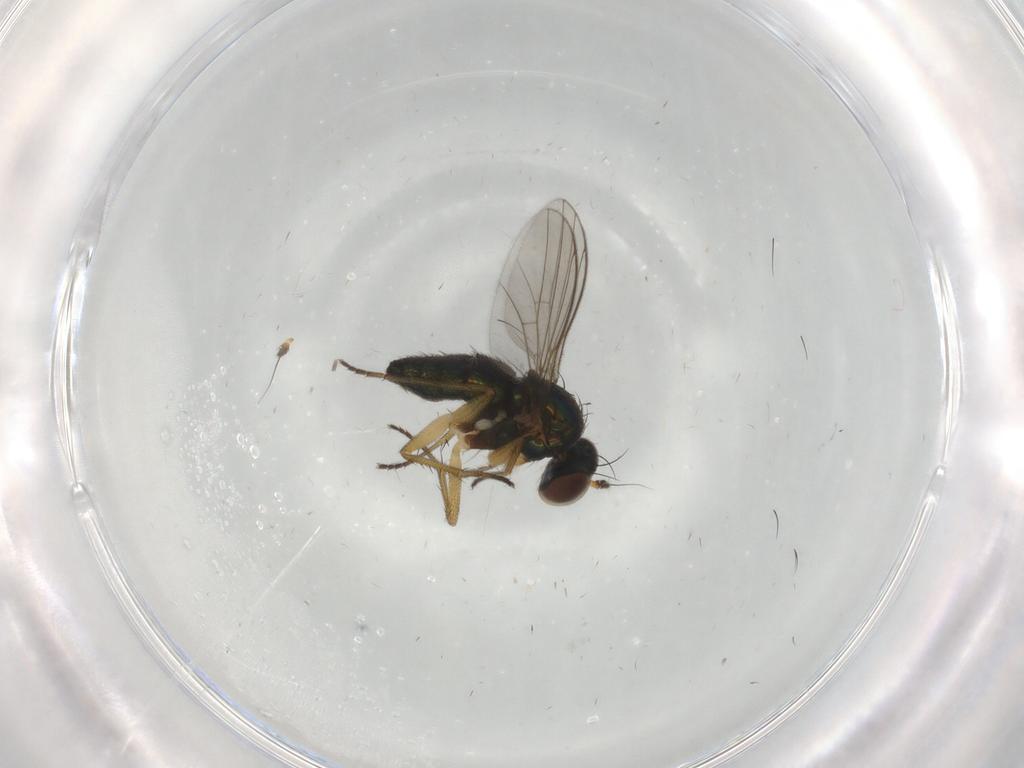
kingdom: Animalia
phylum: Arthropoda
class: Insecta
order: Diptera
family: Dolichopodidae
